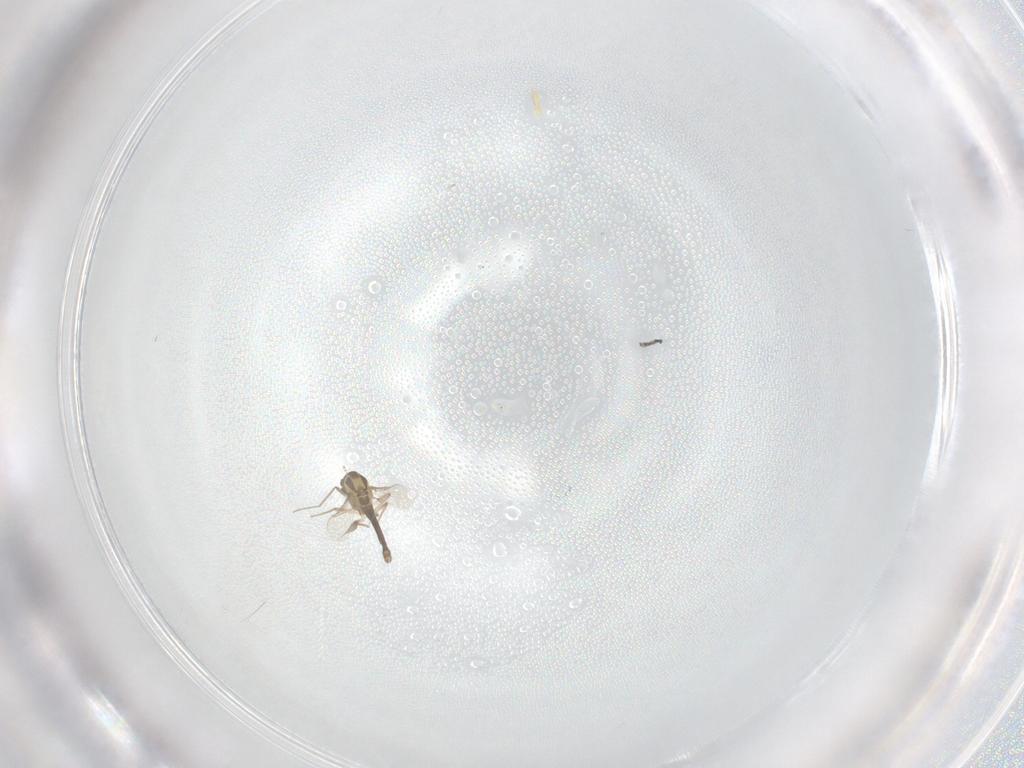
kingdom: Animalia
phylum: Arthropoda
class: Insecta
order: Diptera
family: Chironomidae
